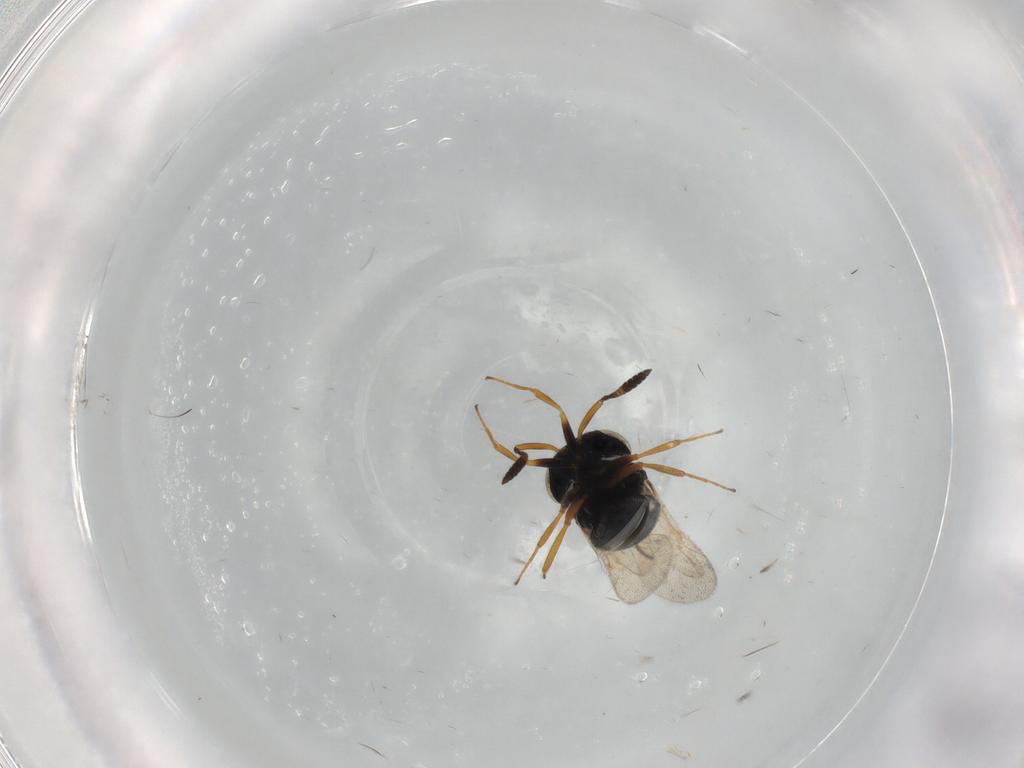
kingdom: Animalia
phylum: Arthropoda
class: Insecta
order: Hymenoptera
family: Scelionidae
